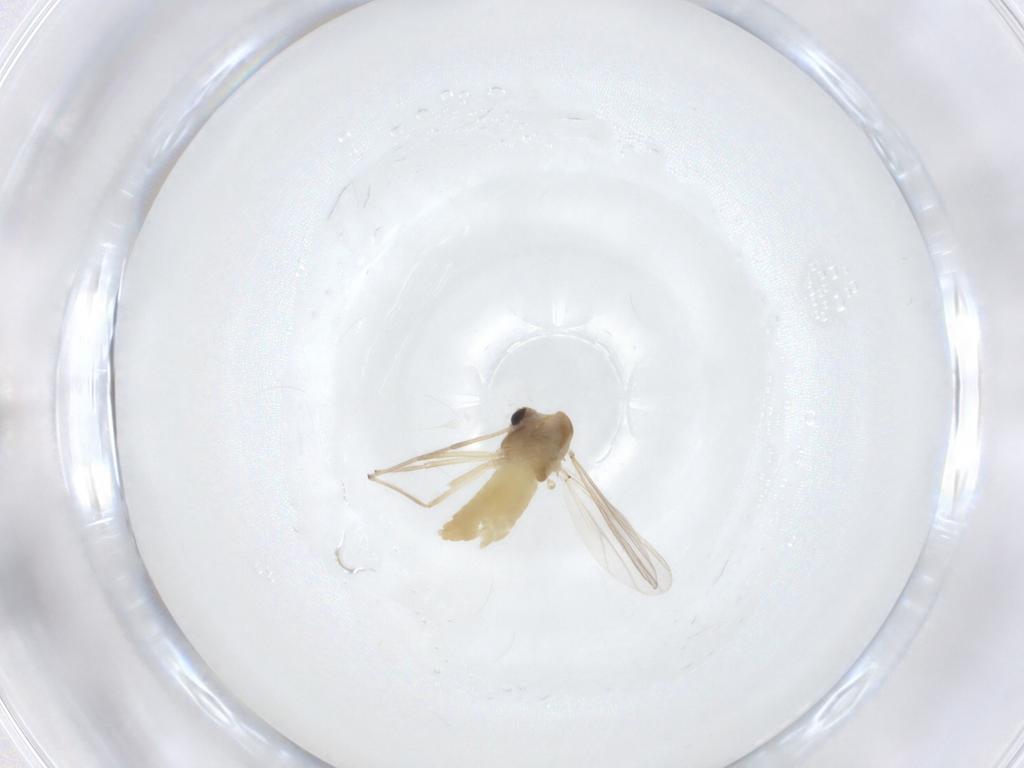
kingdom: Animalia
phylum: Arthropoda
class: Insecta
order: Diptera
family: Chironomidae
